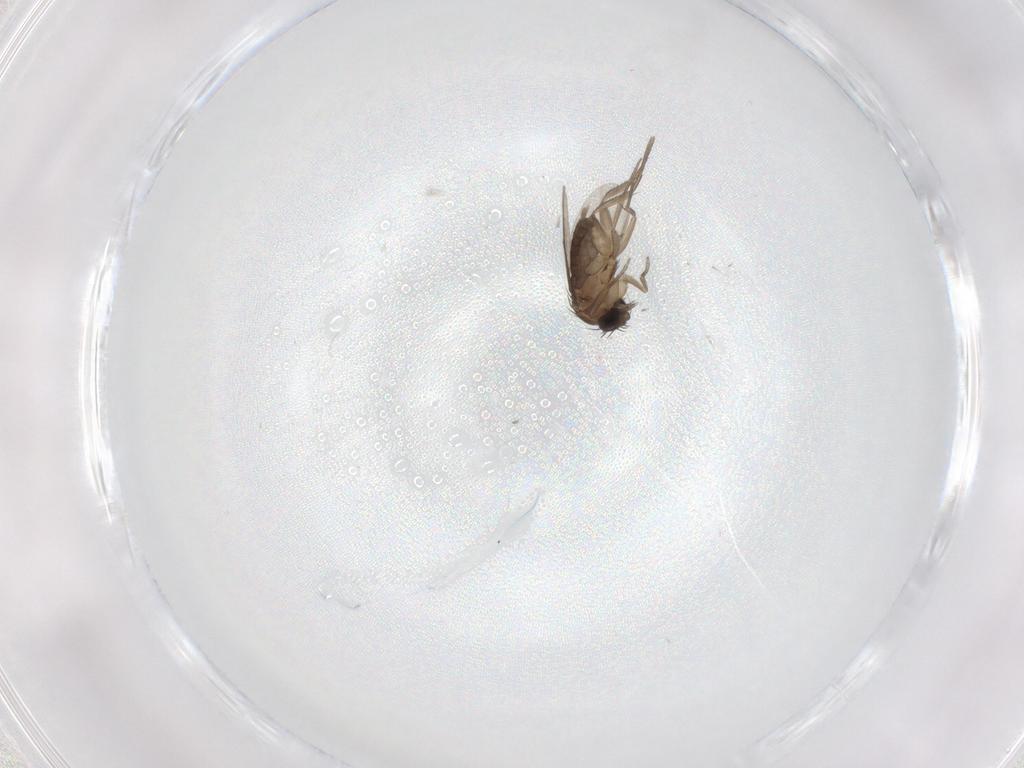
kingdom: Animalia
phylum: Arthropoda
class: Insecta
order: Diptera
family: Phoridae
